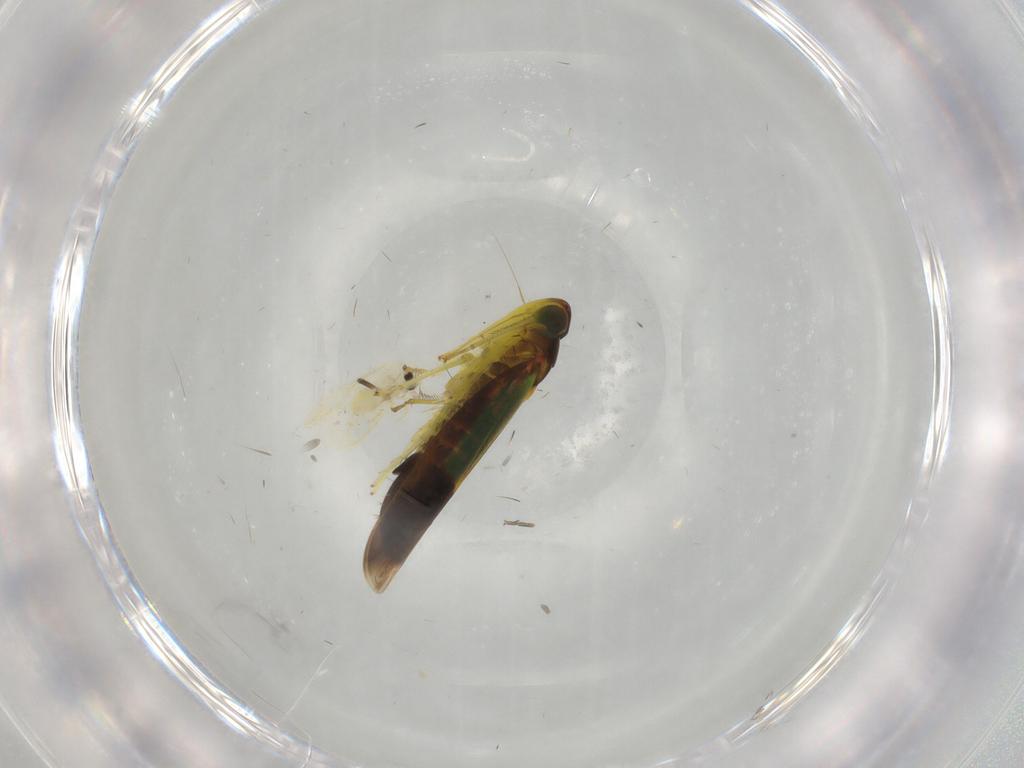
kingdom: Animalia
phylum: Arthropoda
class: Insecta
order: Hemiptera
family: Cicadellidae
